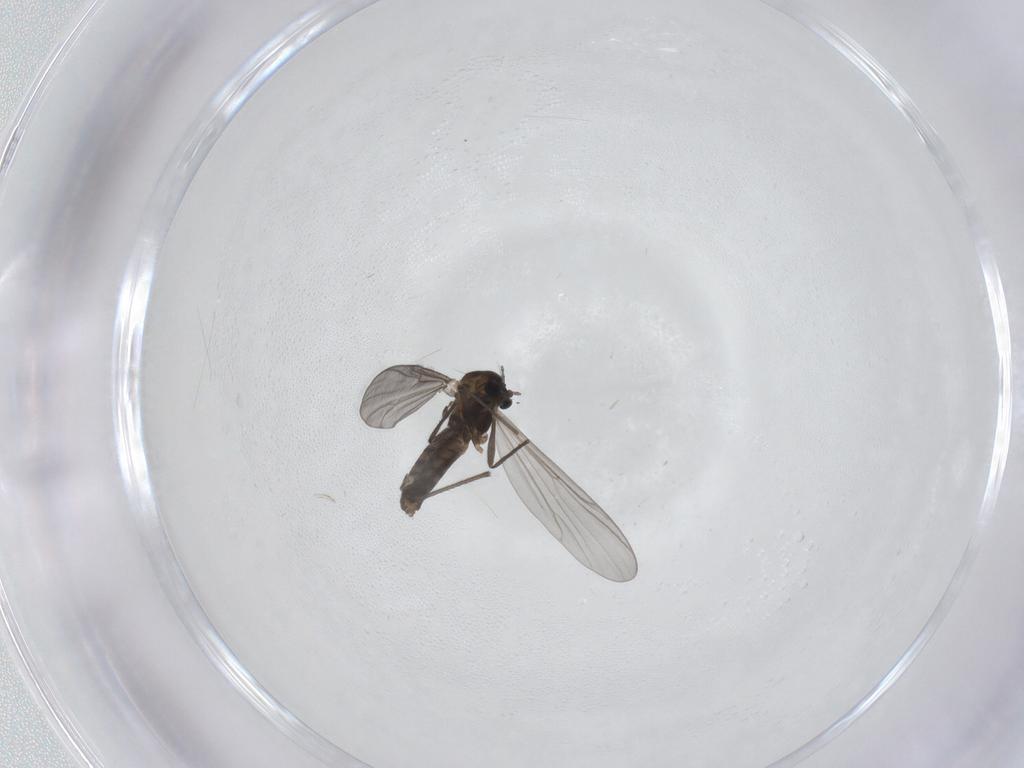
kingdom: Animalia
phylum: Arthropoda
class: Insecta
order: Diptera
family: Chironomidae
